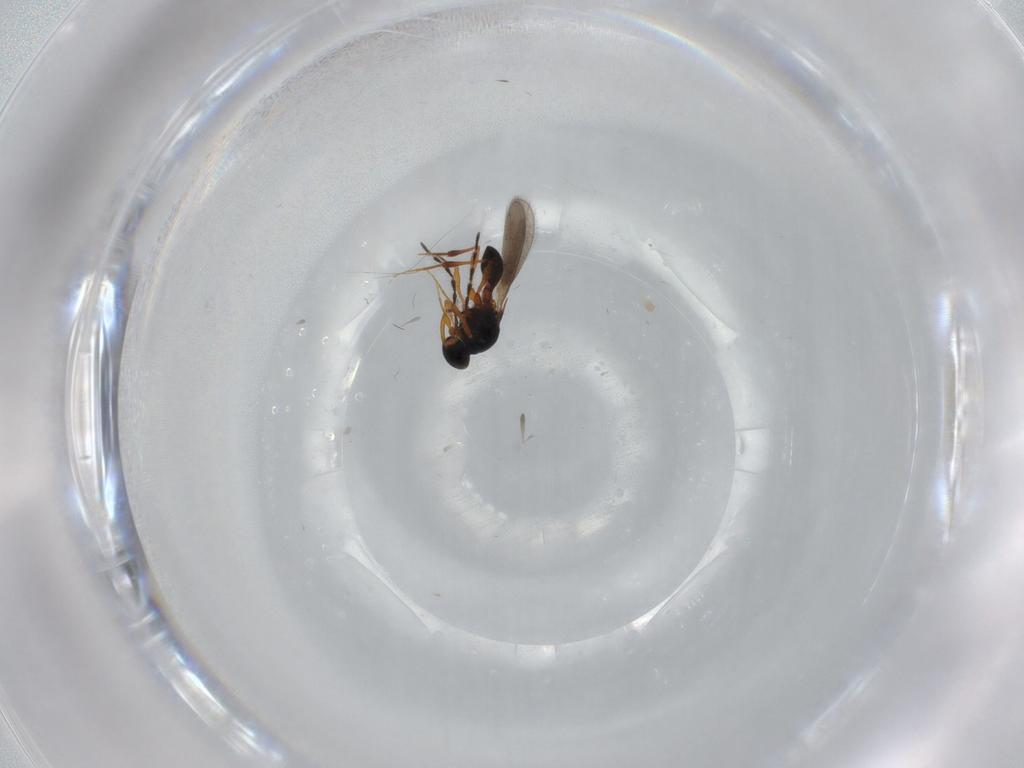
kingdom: Animalia
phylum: Arthropoda
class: Insecta
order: Hymenoptera
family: Platygastridae
